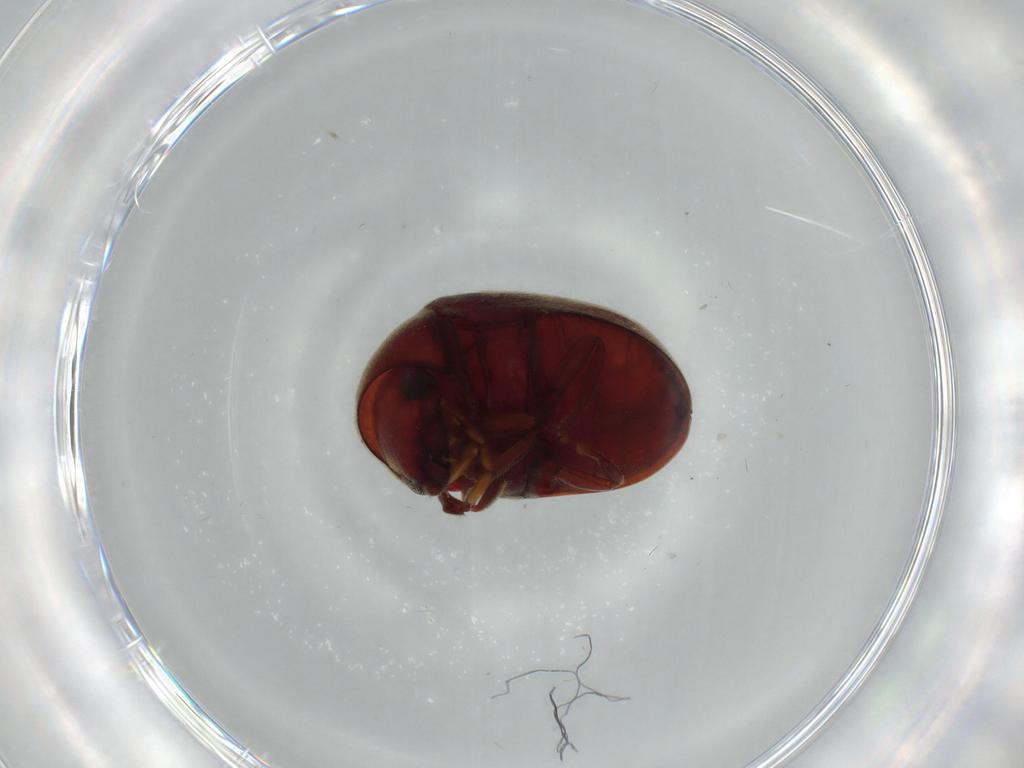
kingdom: Animalia
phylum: Arthropoda
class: Insecta
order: Coleoptera
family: Ptinidae
